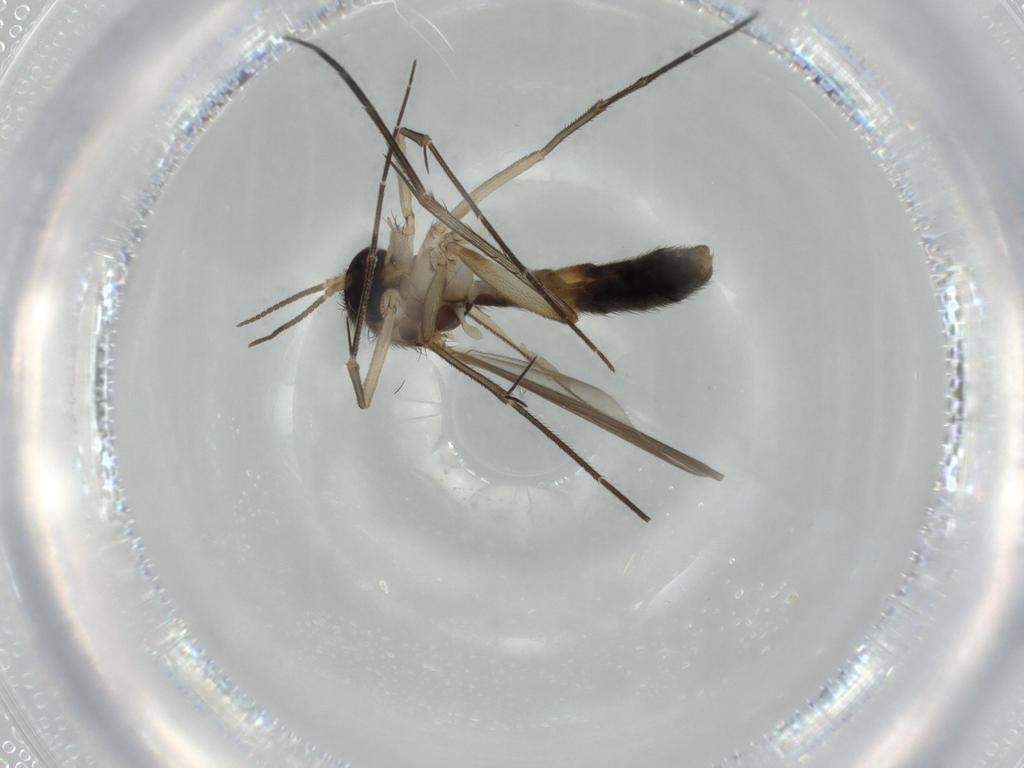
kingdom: Animalia
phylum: Arthropoda
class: Insecta
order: Diptera
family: Mycetophilidae
